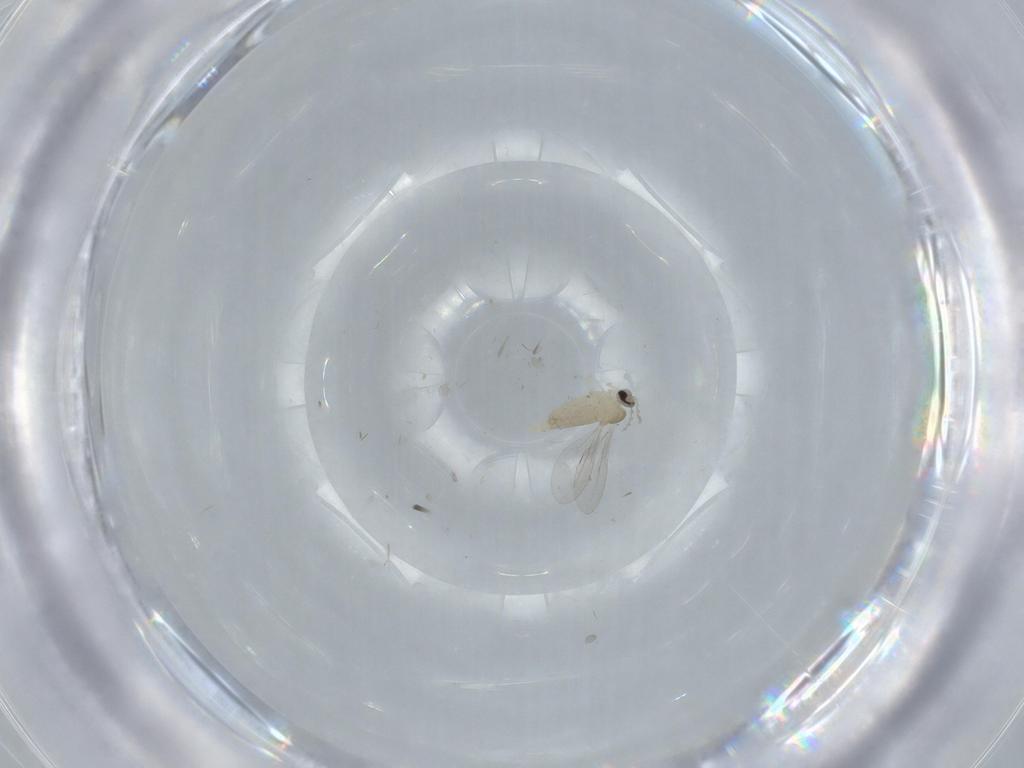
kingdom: Animalia
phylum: Arthropoda
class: Insecta
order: Diptera
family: Cecidomyiidae
